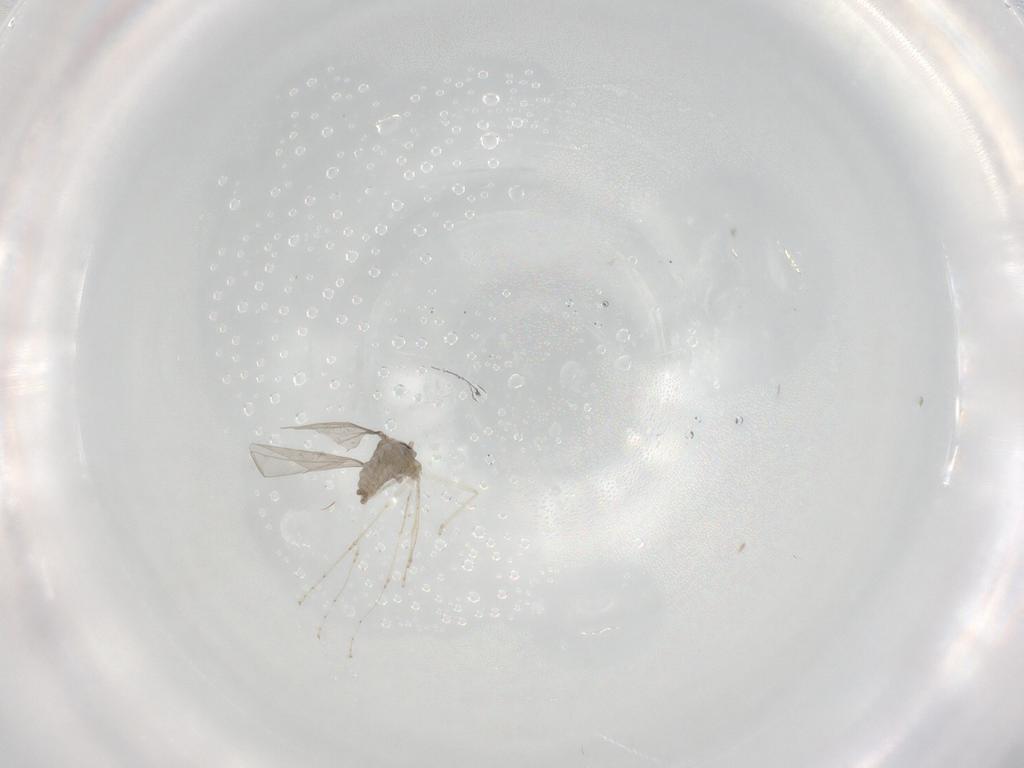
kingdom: Animalia
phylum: Arthropoda
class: Insecta
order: Diptera
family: Cecidomyiidae
